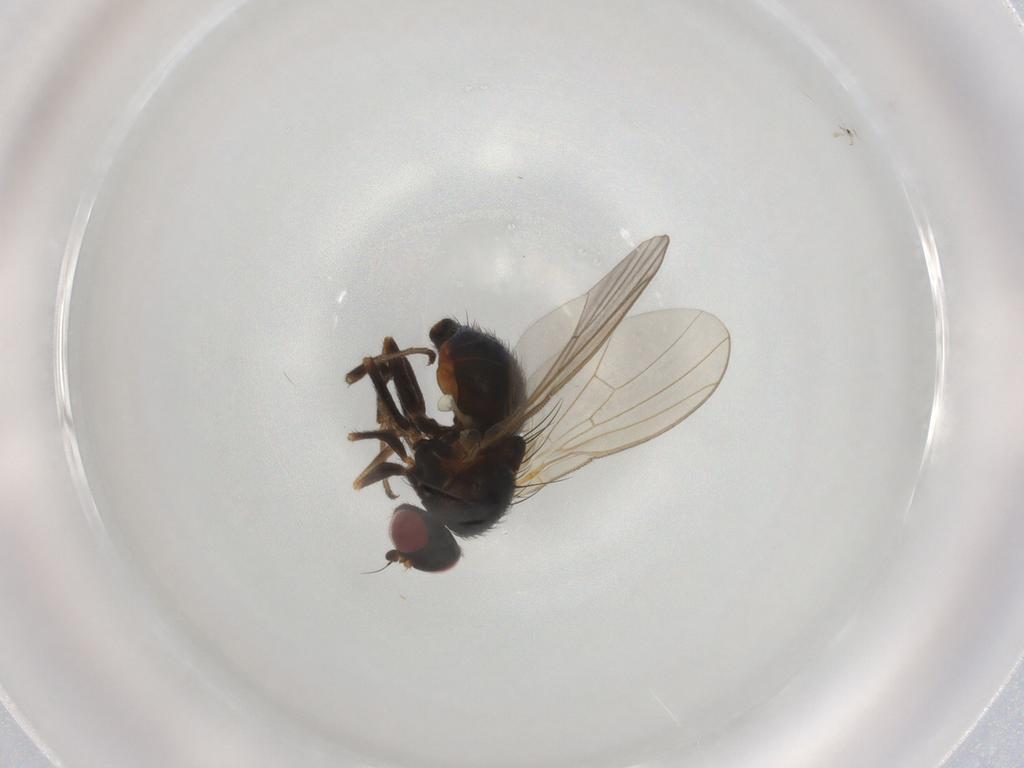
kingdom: Animalia
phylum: Arthropoda
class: Insecta
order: Diptera
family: Agromyzidae
